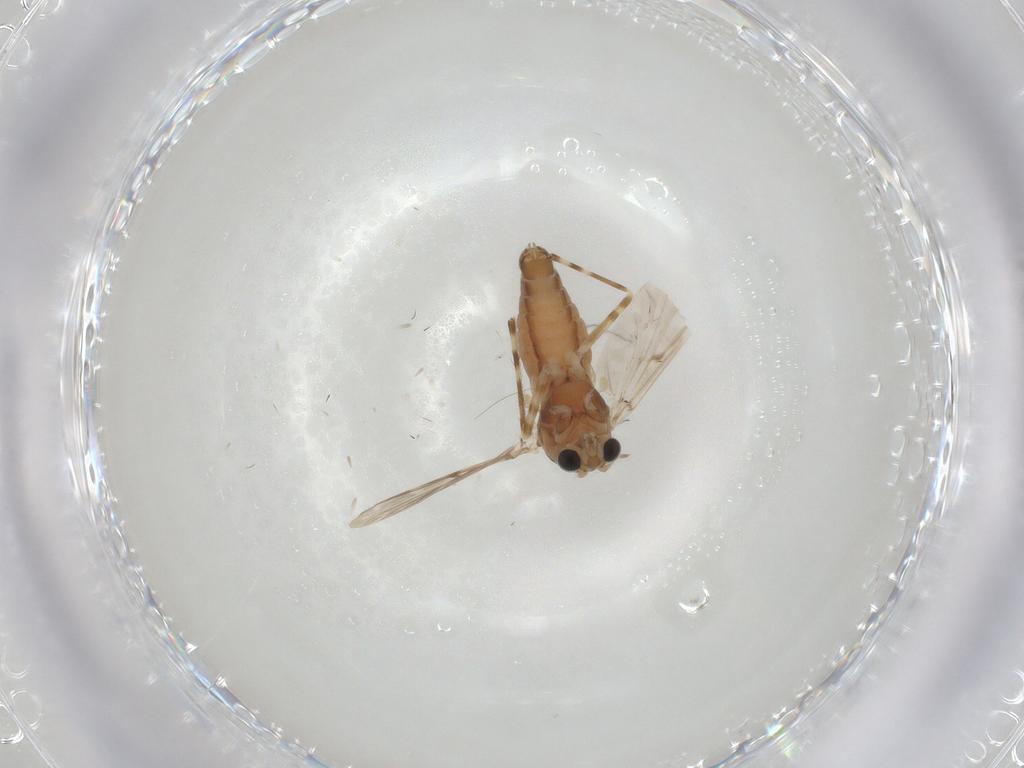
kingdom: Animalia
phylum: Arthropoda
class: Insecta
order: Diptera
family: Chironomidae
